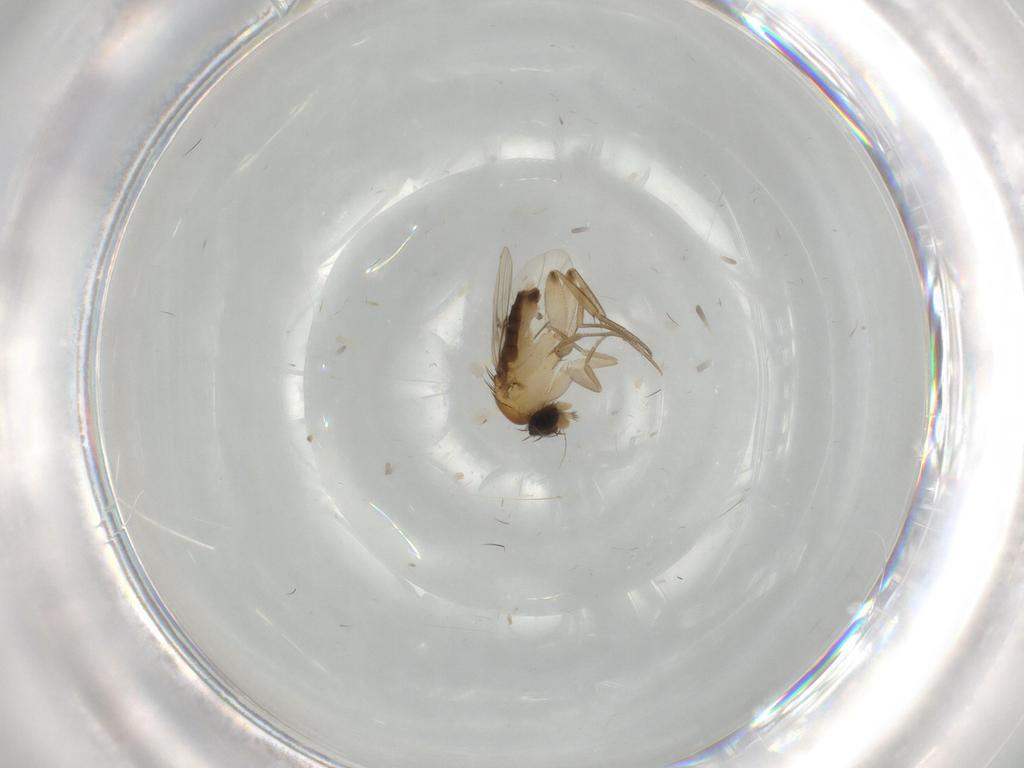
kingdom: Animalia
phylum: Arthropoda
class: Insecta
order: Diptera
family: Phoridae
